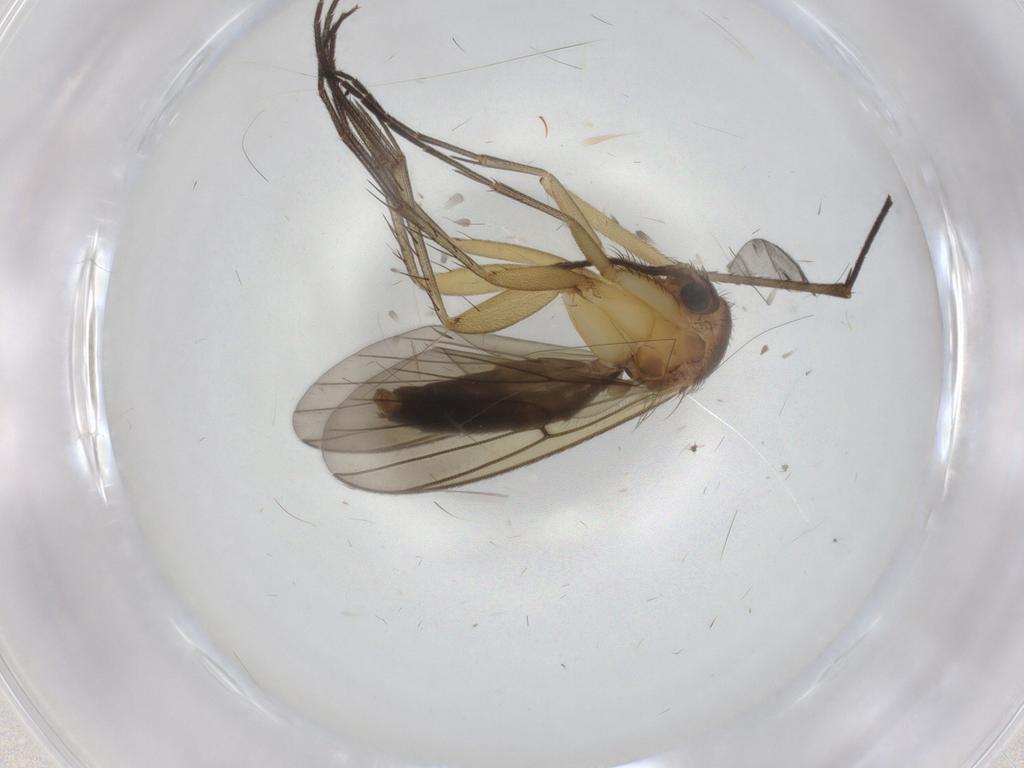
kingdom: Animalia
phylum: Arthropoda
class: Insecta
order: Diptera
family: Mycetophilidae
